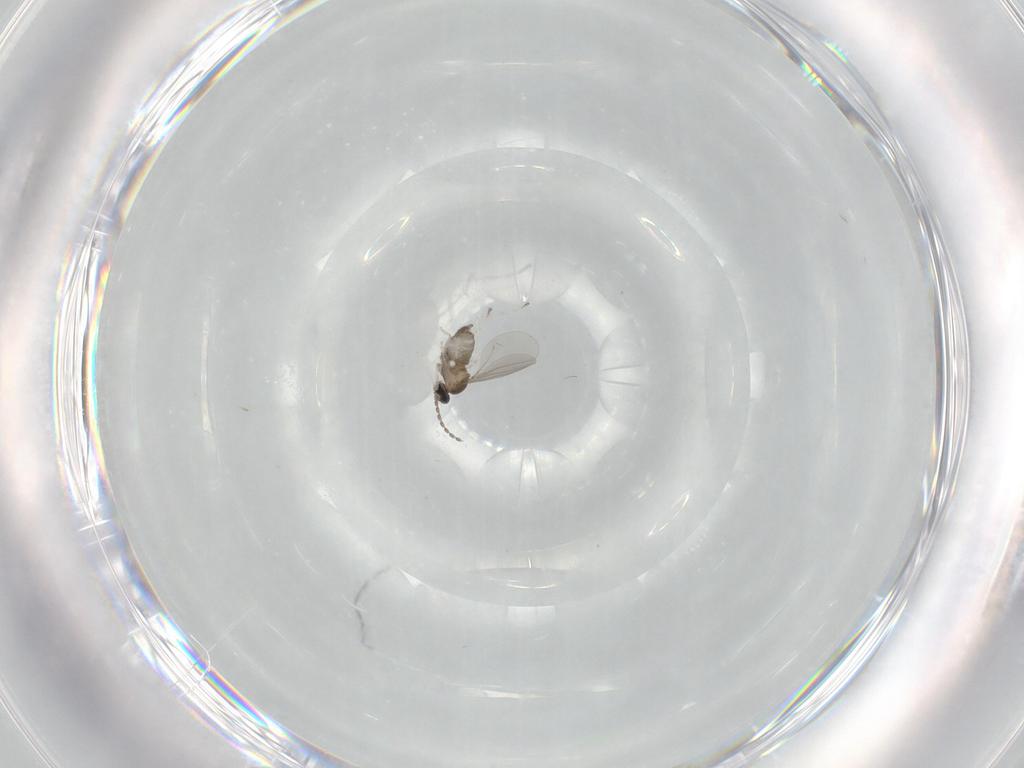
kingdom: Animalia
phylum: Arthropoda
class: Insecta
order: Diptera
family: Cecidomyiidae
